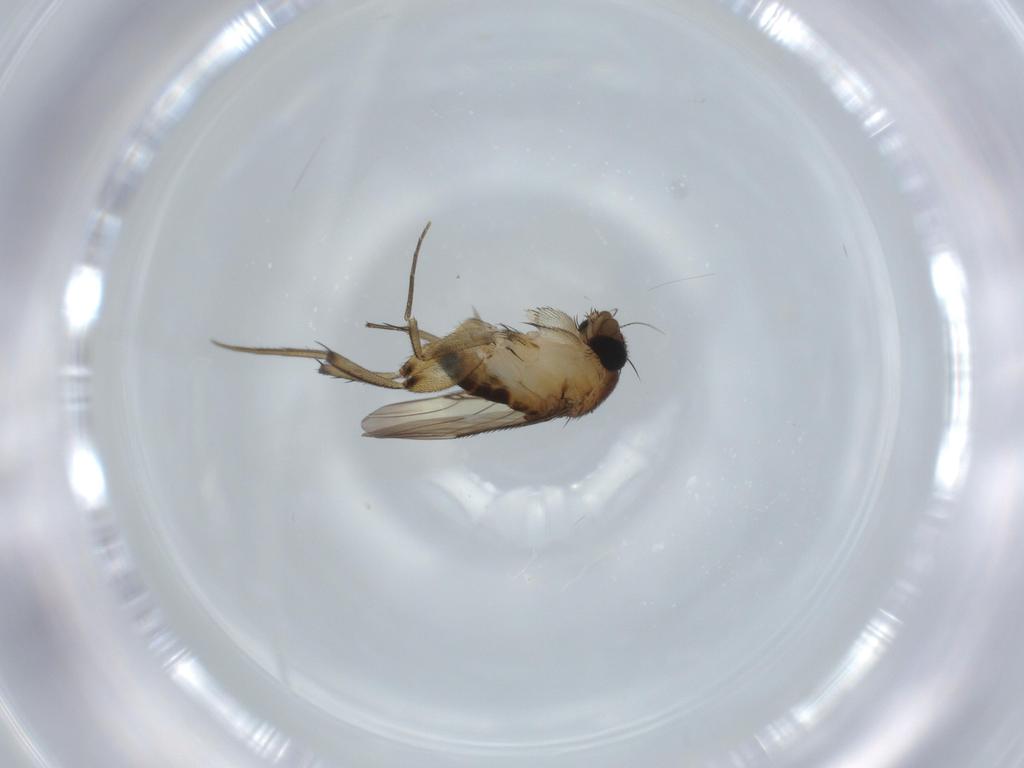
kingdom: Animalia
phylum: Arthropoda
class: Insecta
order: Diptera
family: Phoridae
